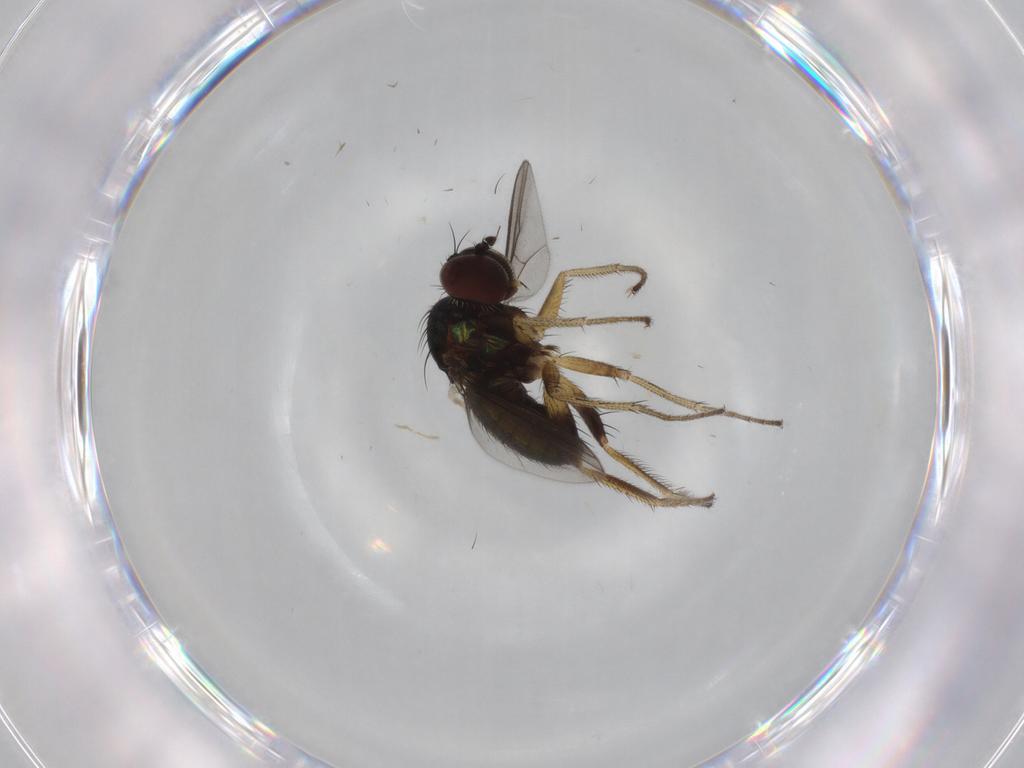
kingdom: Animalia
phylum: Arthropoda
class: Insecta
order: Diptera
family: Dolichopodidae
